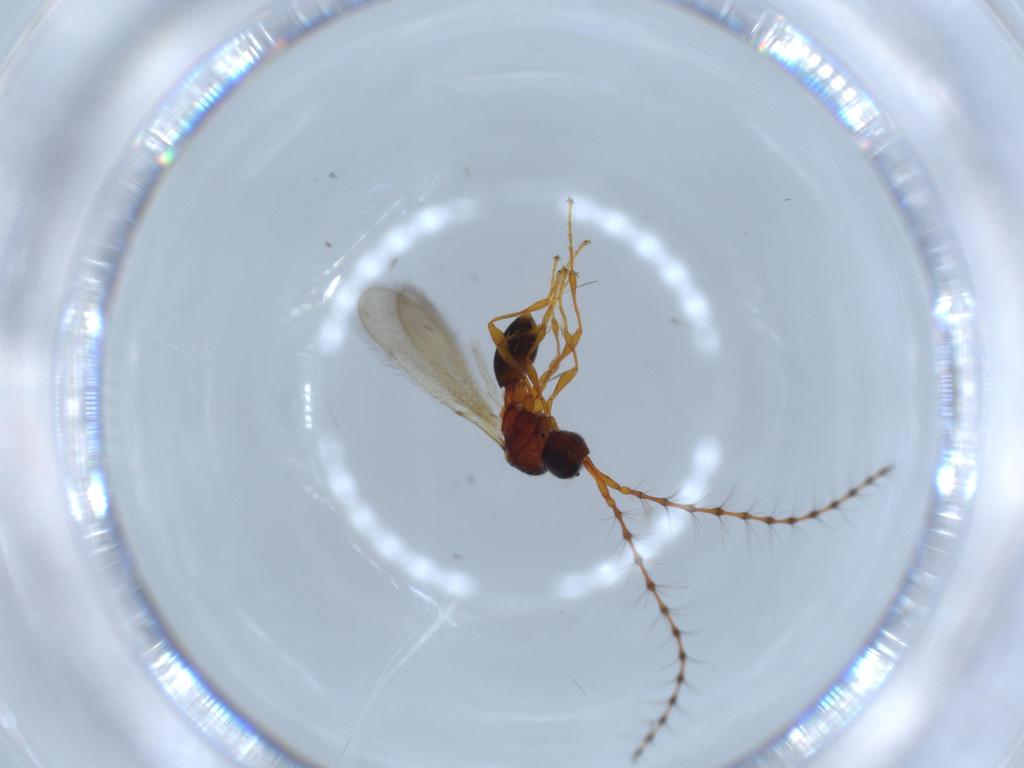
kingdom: Animalia
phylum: Arthropoda
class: Insecta
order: Hymenoptera
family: Diapriidae
